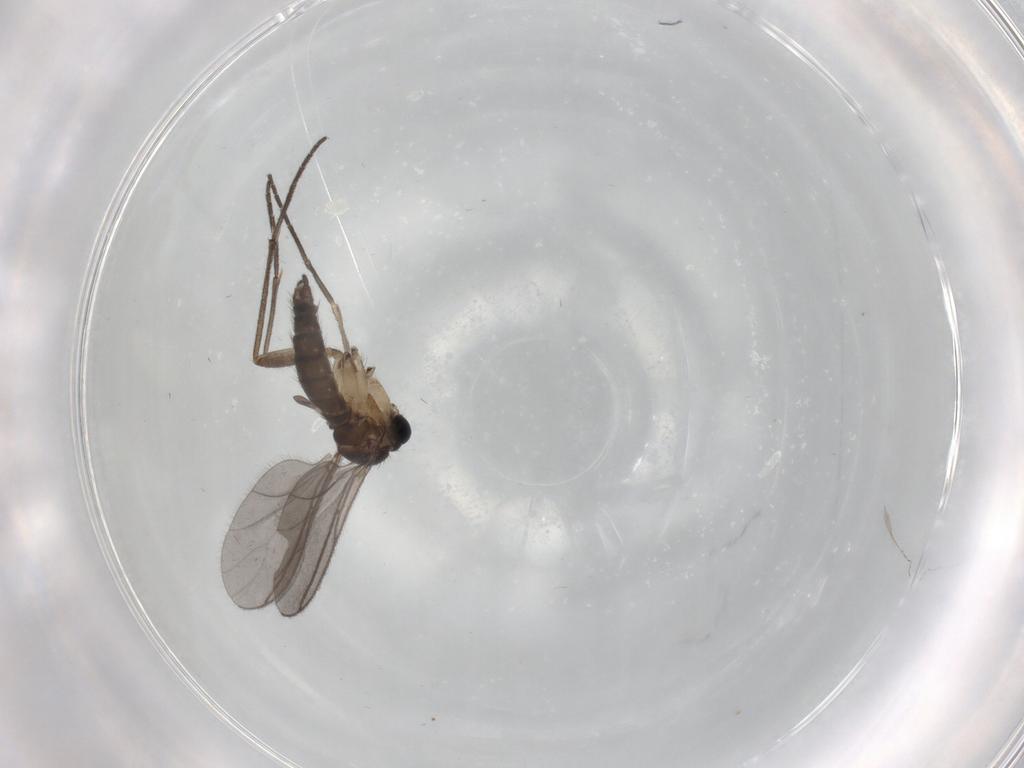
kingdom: Animalia
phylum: Arthropoda
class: Insecta
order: Diptera
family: Sciaridae
